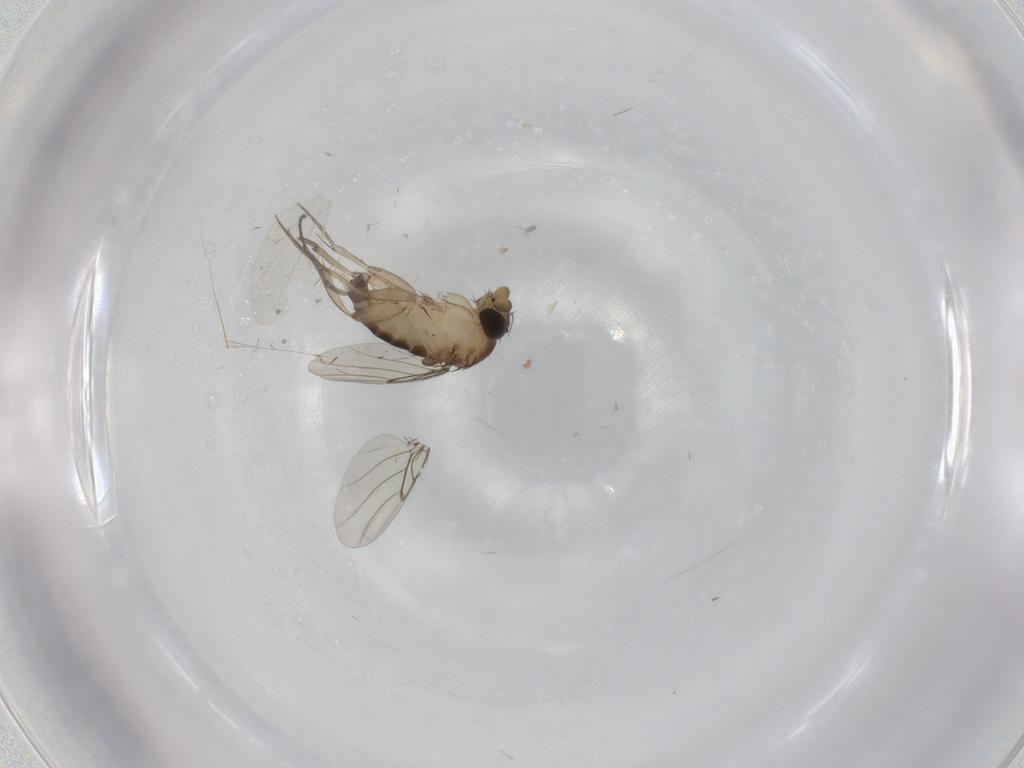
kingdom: Animalia
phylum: Arthropoda
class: Insecta
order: Diptera
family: Phoridae
